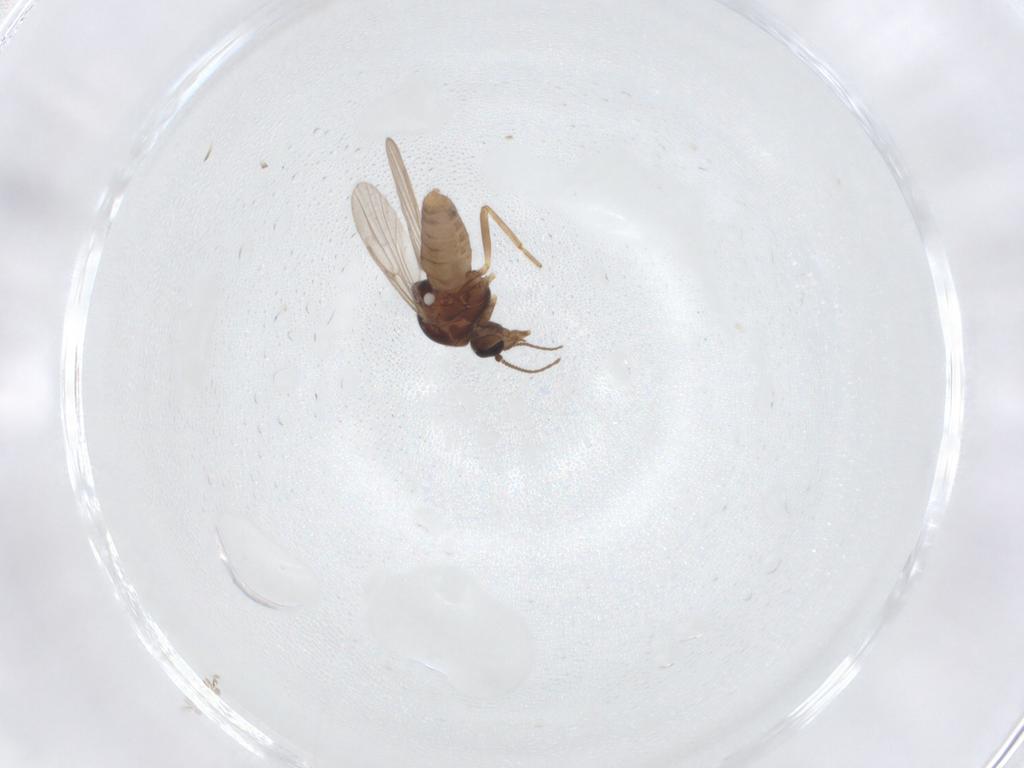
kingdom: Animalia
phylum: Arthropoda
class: Insecta
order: Diptera
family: Ceratopogonidae
